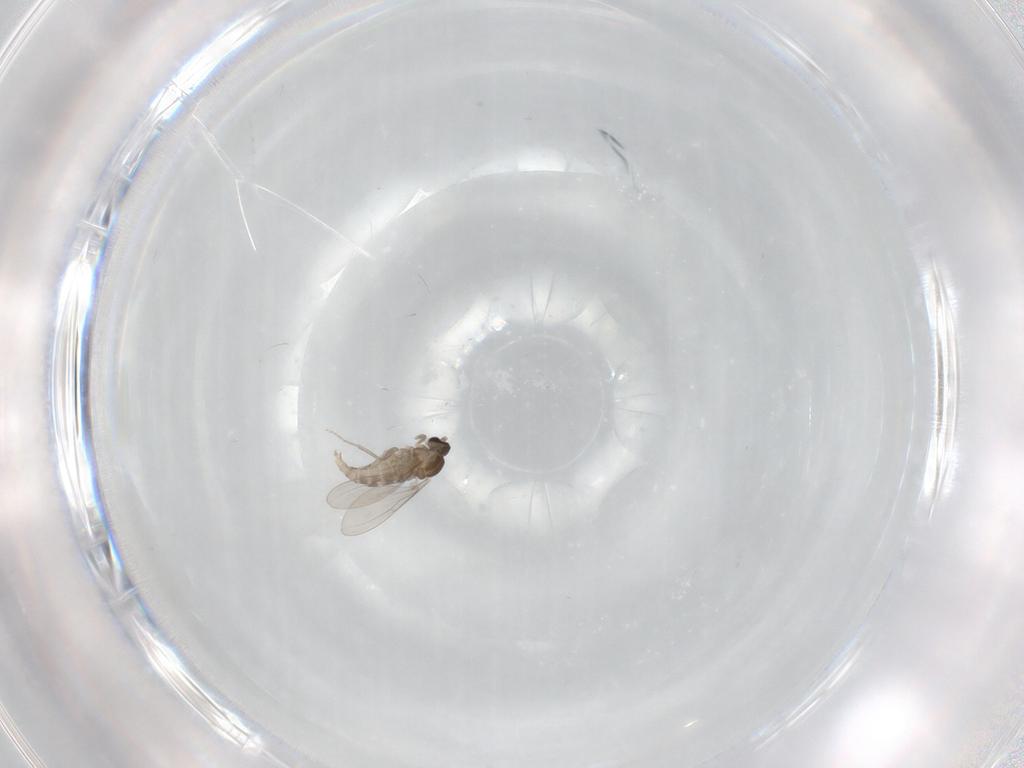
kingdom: Animalia
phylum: Arthropoda
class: Insecta
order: Diptera
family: Cecidomyiidae
